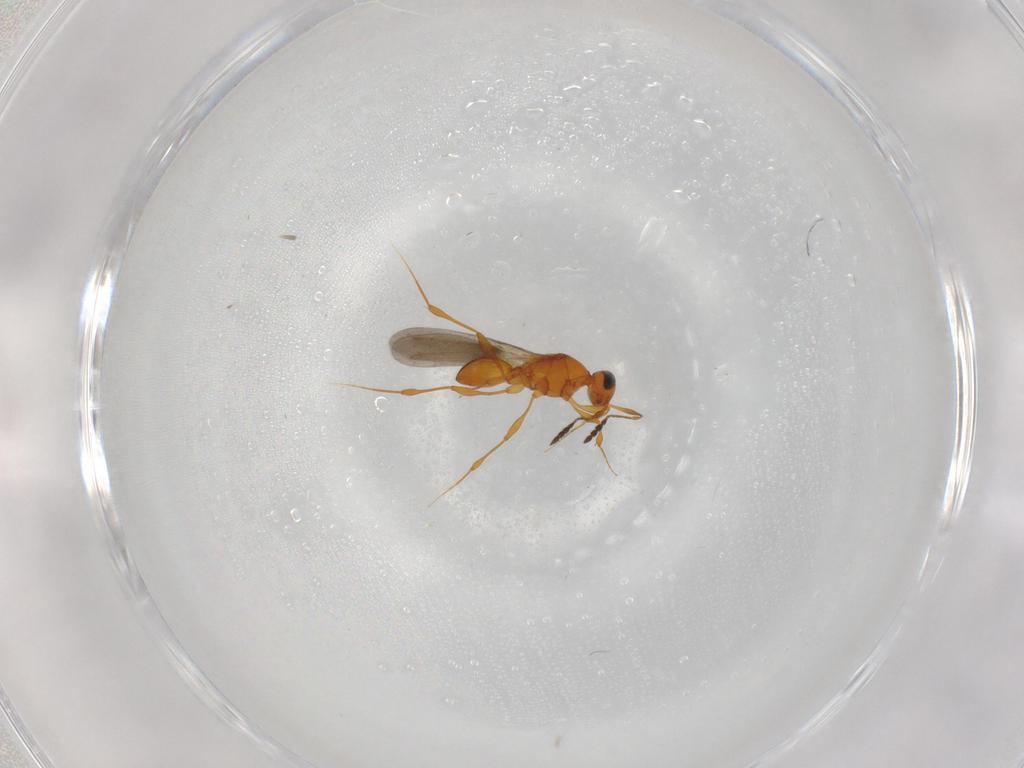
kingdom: Animalia
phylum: Arthropoda
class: Insecta
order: Hymenoptera
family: Platygastridae
